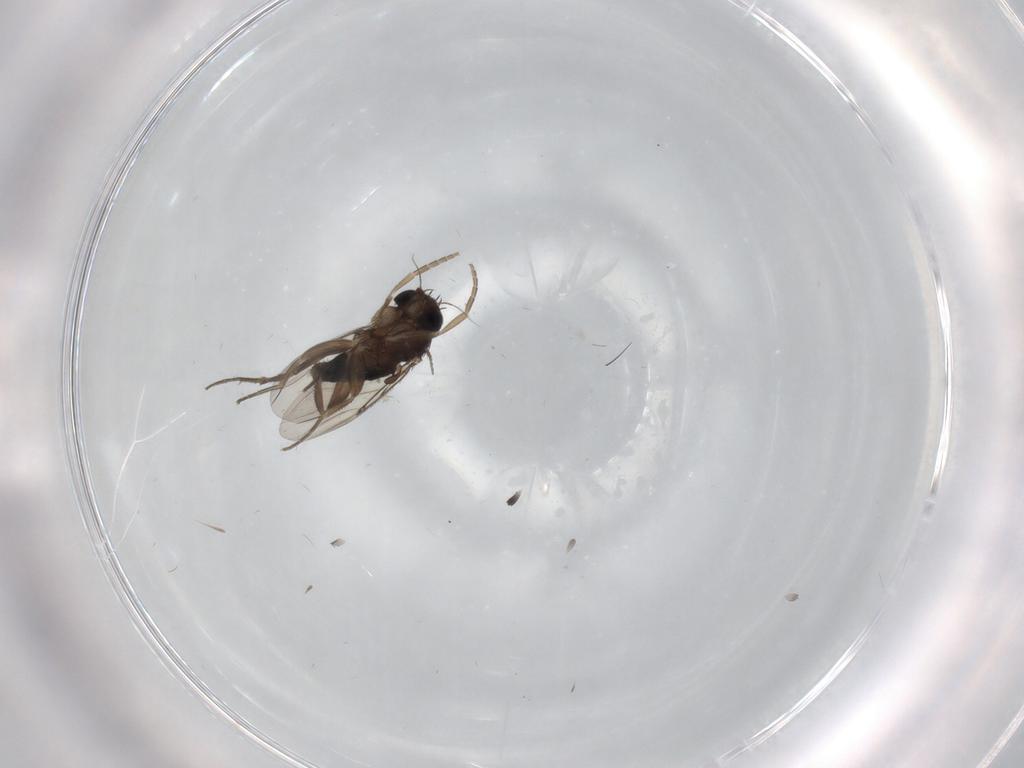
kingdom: Animalia
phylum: Arthropoda
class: Insecta
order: Diptera
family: Phoridae
